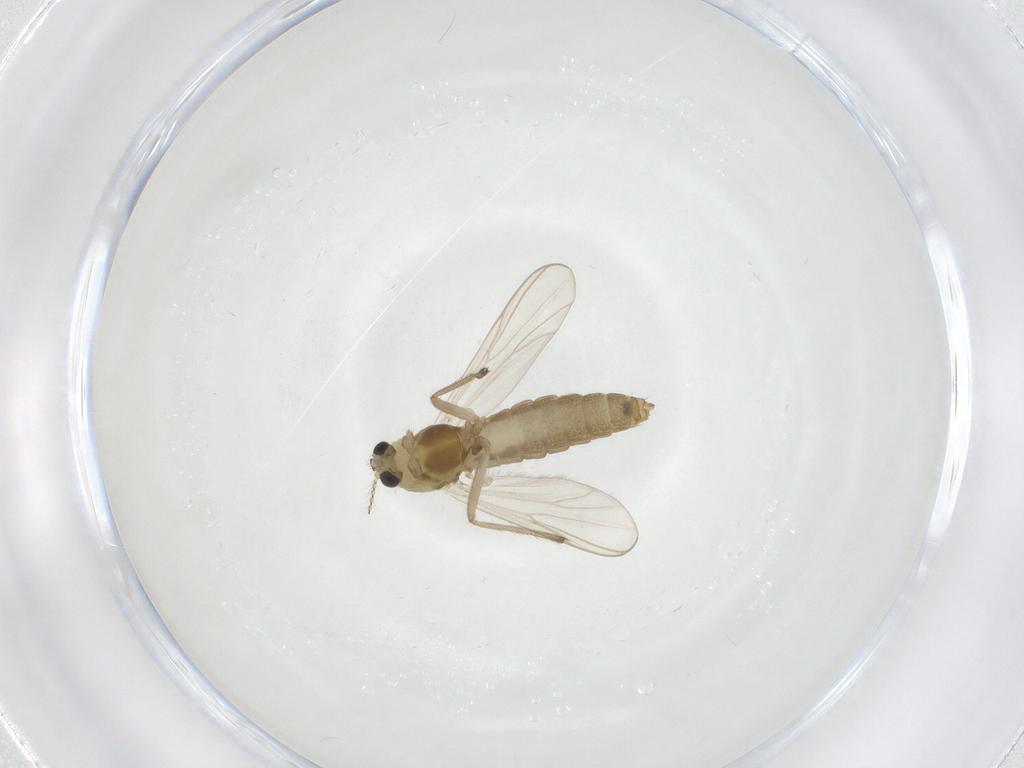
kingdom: Animalia
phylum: Arthropoda
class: Insecta
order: Diptera
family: Chironomidae
